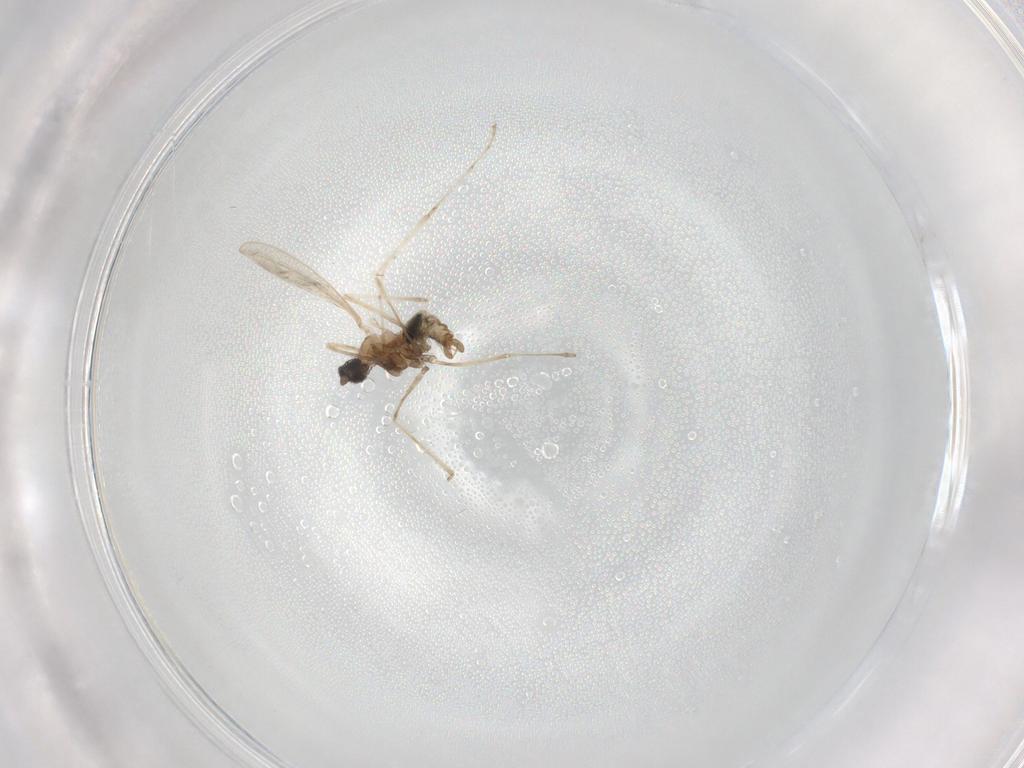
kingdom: Animalia
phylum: Arthropoda
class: Insecta
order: Diptera
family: Cecidomyiidae
